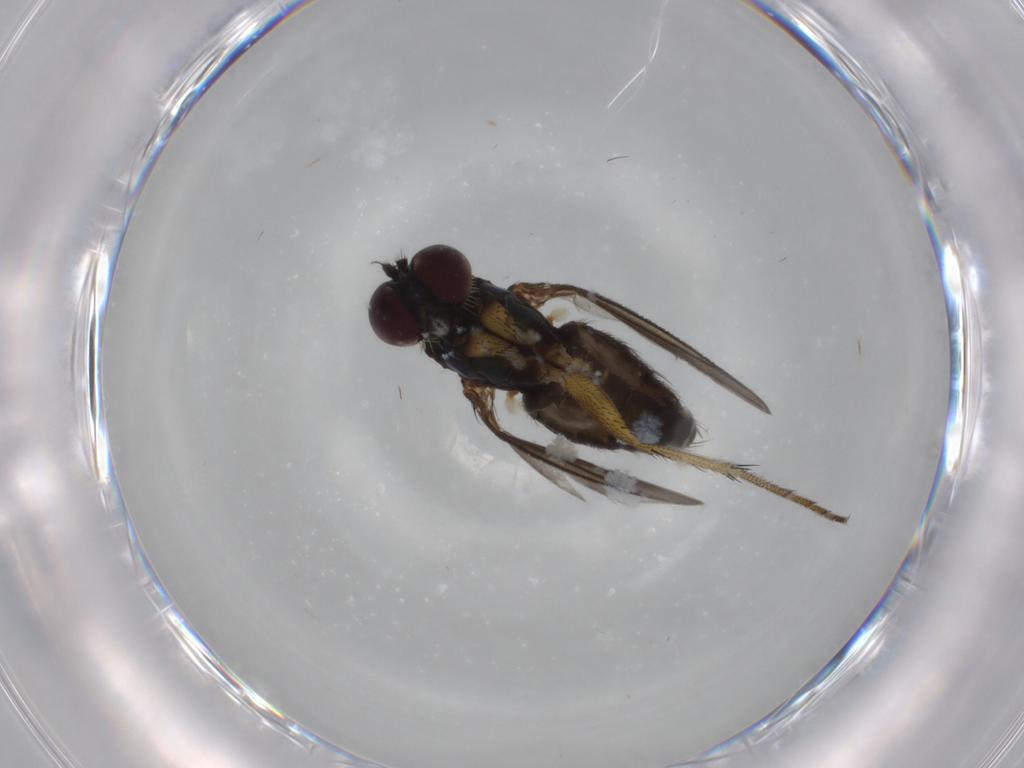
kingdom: Animalia
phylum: Arthropoda
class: Insecta
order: Diptera
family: Dolichopodidae
